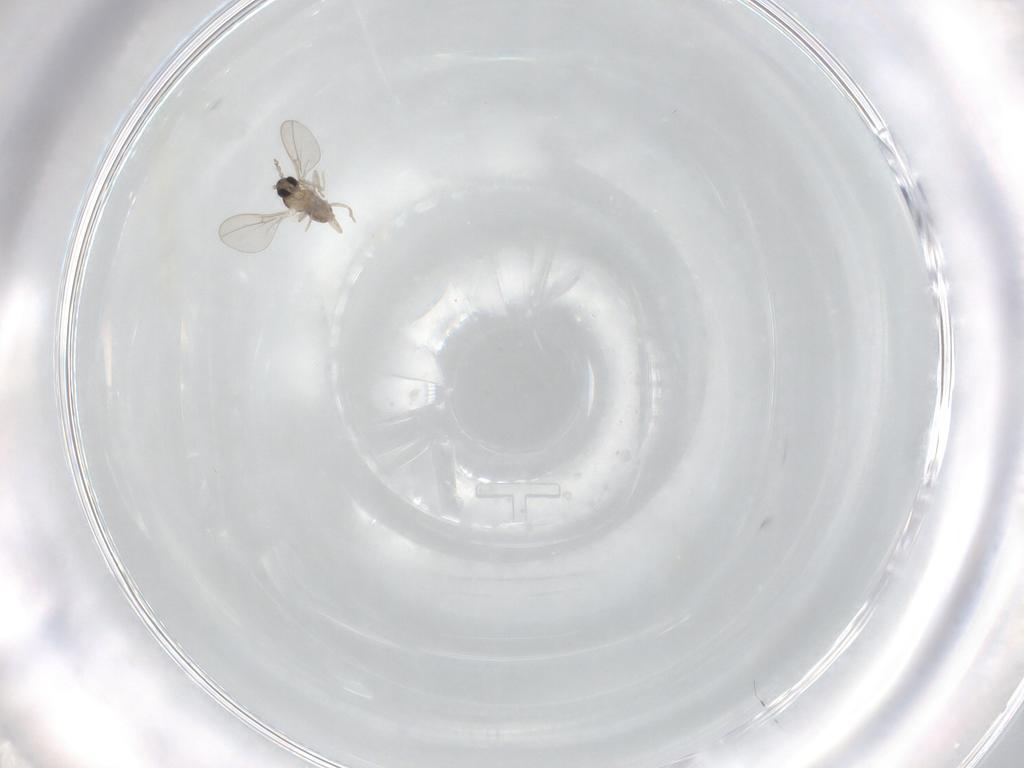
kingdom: Animalia
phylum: Arthropoda
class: Insecta
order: Diptera
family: Cecidomyiidae
